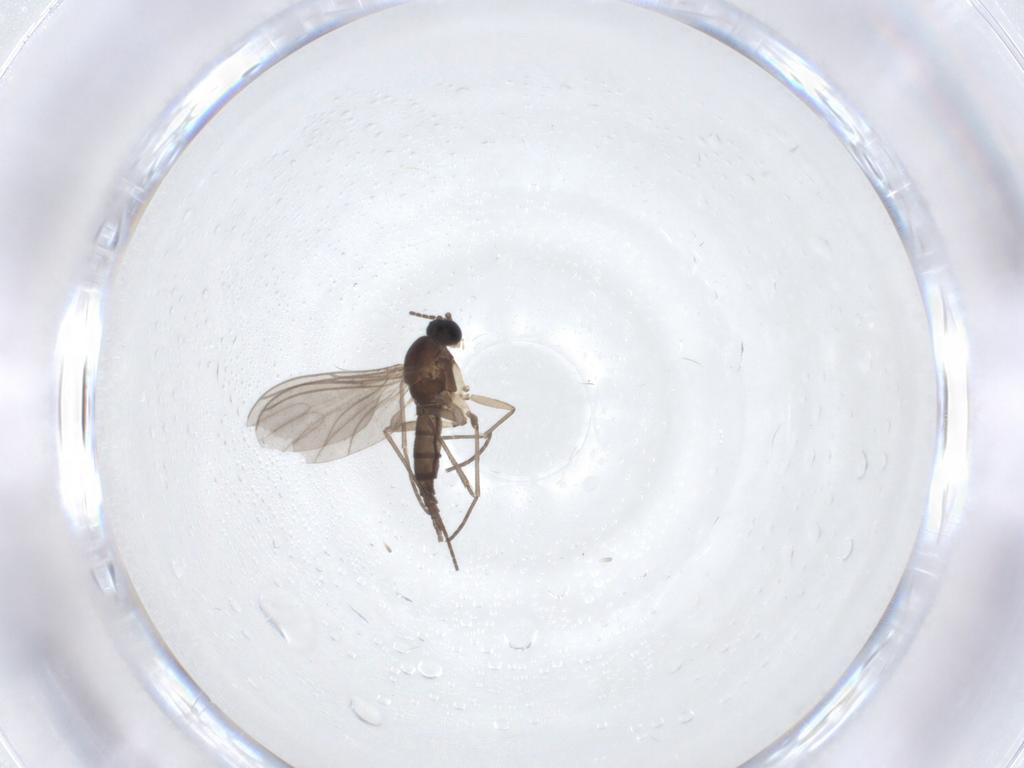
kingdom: Animalia
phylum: Arthropoda
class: Insecta
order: Diptera
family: Sciaridae
